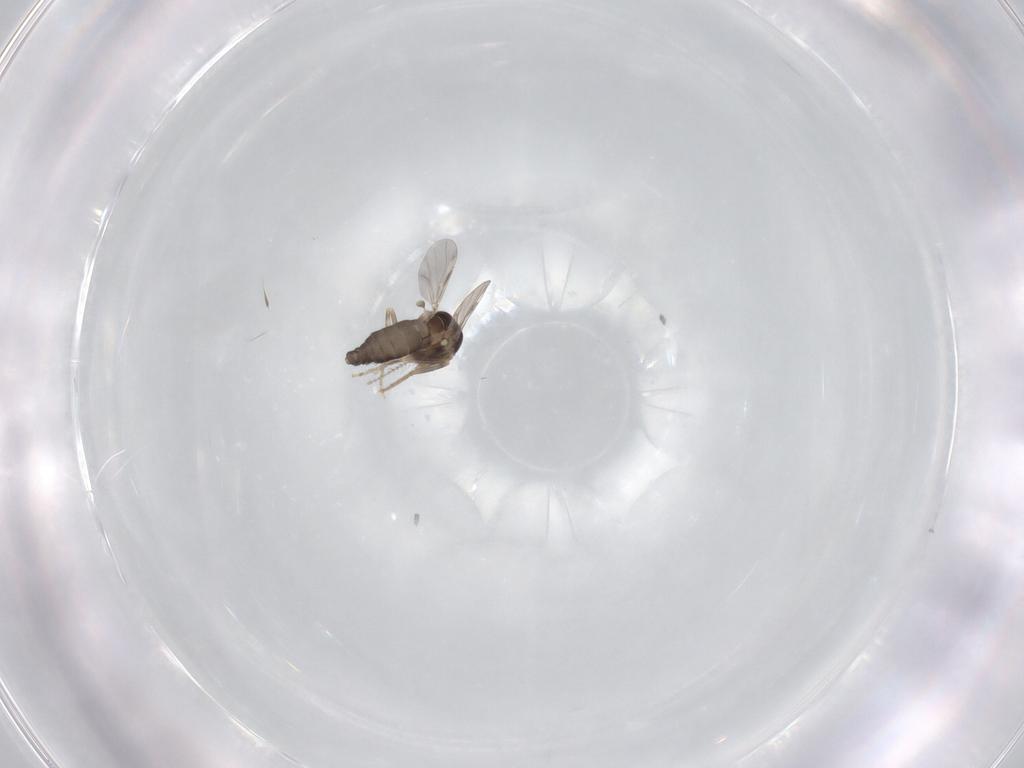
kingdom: Animalia
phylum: Arthropoda
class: Insecta
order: Diptera
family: Ceratopogonidae
